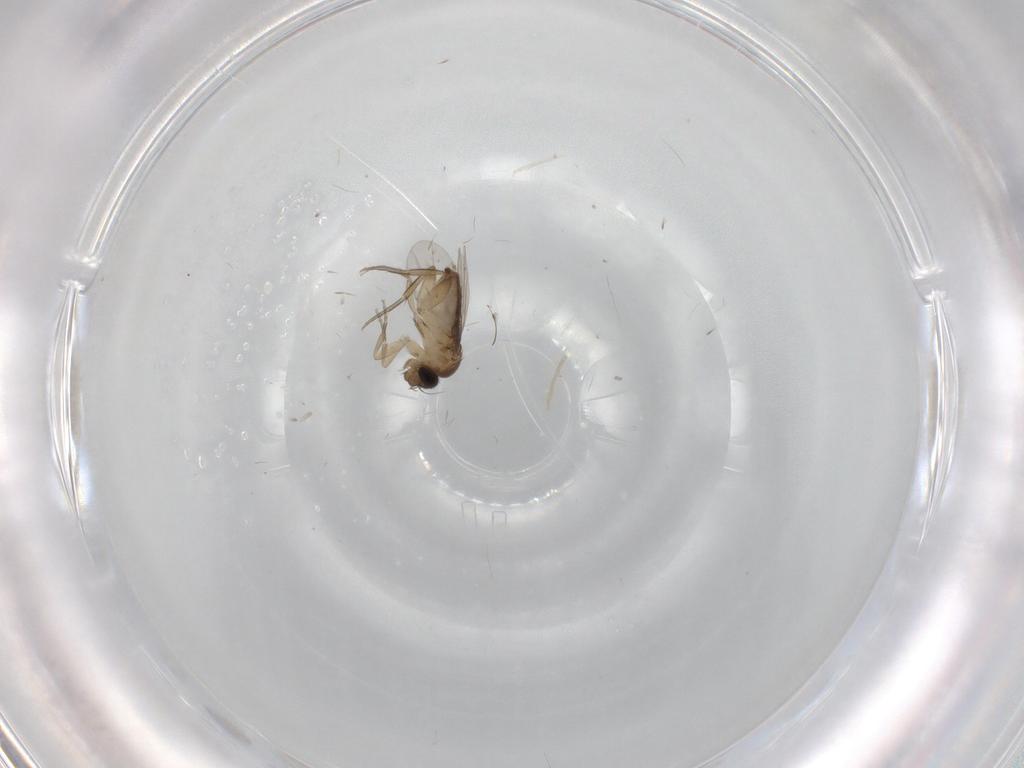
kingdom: Animalia
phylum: Arthropoda
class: Insecta
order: Diptera
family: Phoridae
